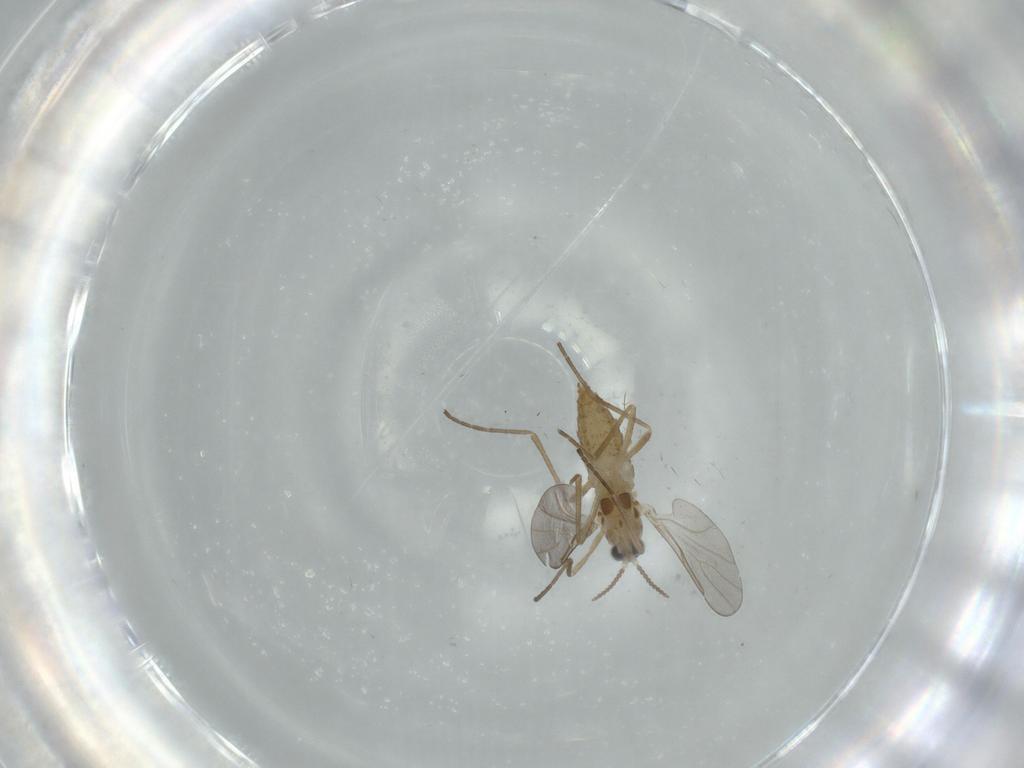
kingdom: Animalia
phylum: Arthropoda
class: Insecta
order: Diptera
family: Cecidomyiidae
